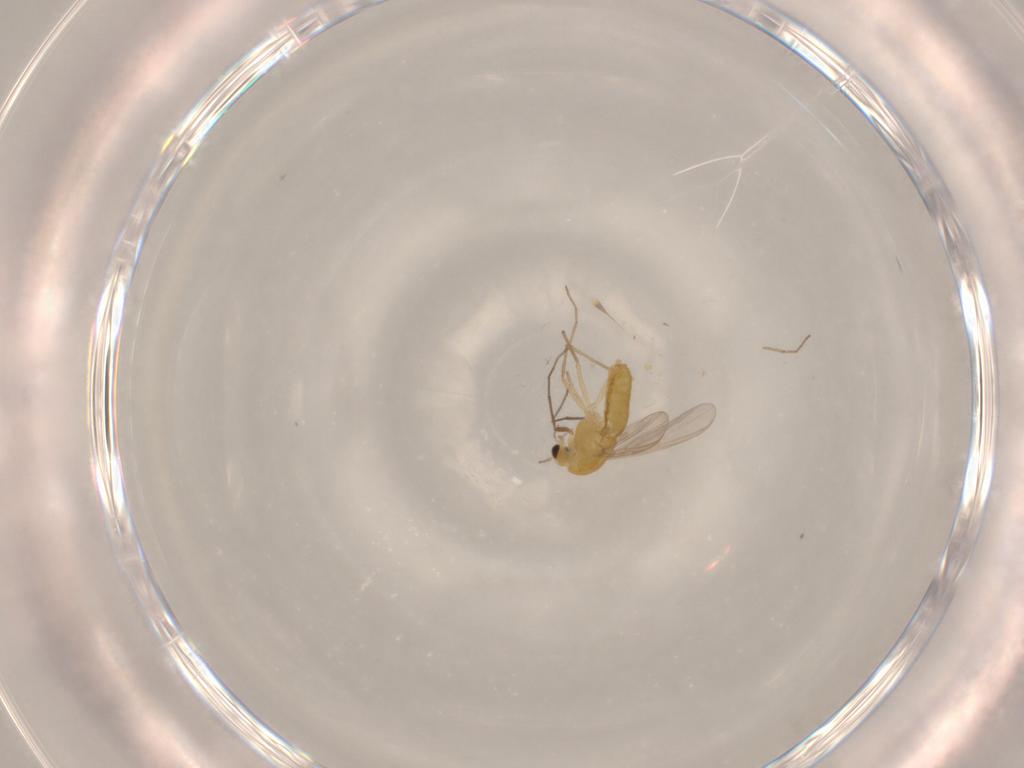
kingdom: Animalia
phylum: Arthropoda
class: Insecta
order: Diptera
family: Chironomidae
